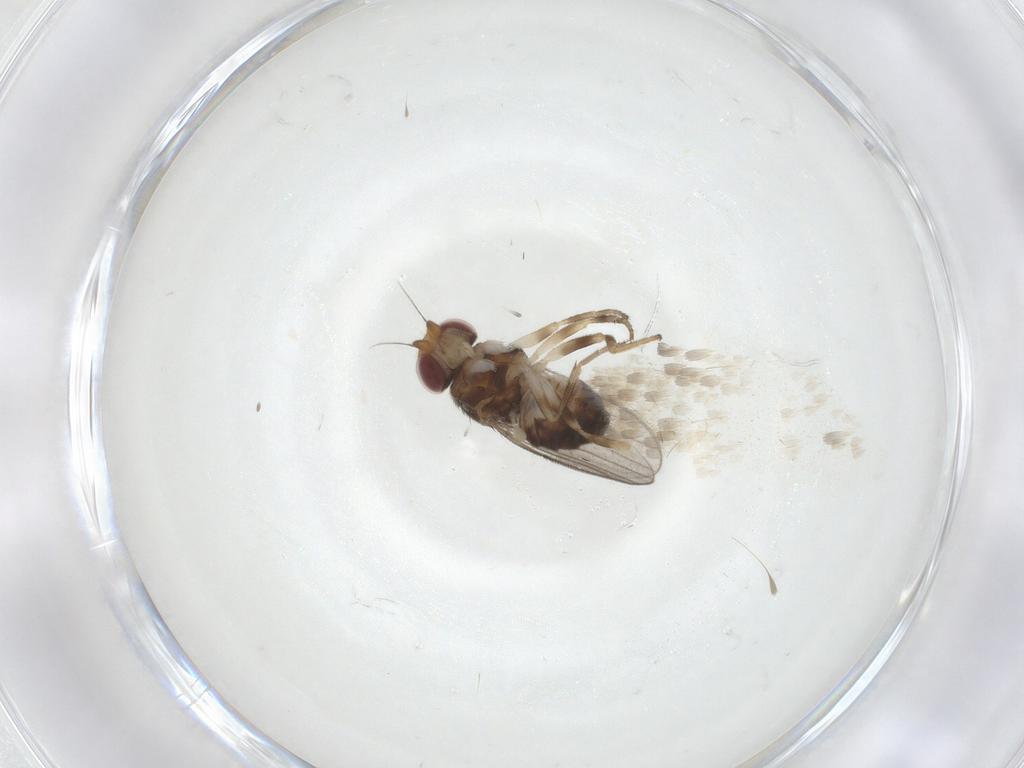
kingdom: Animalia
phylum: Arthropoda
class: Insecta
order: Diptera
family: Chloropidae
